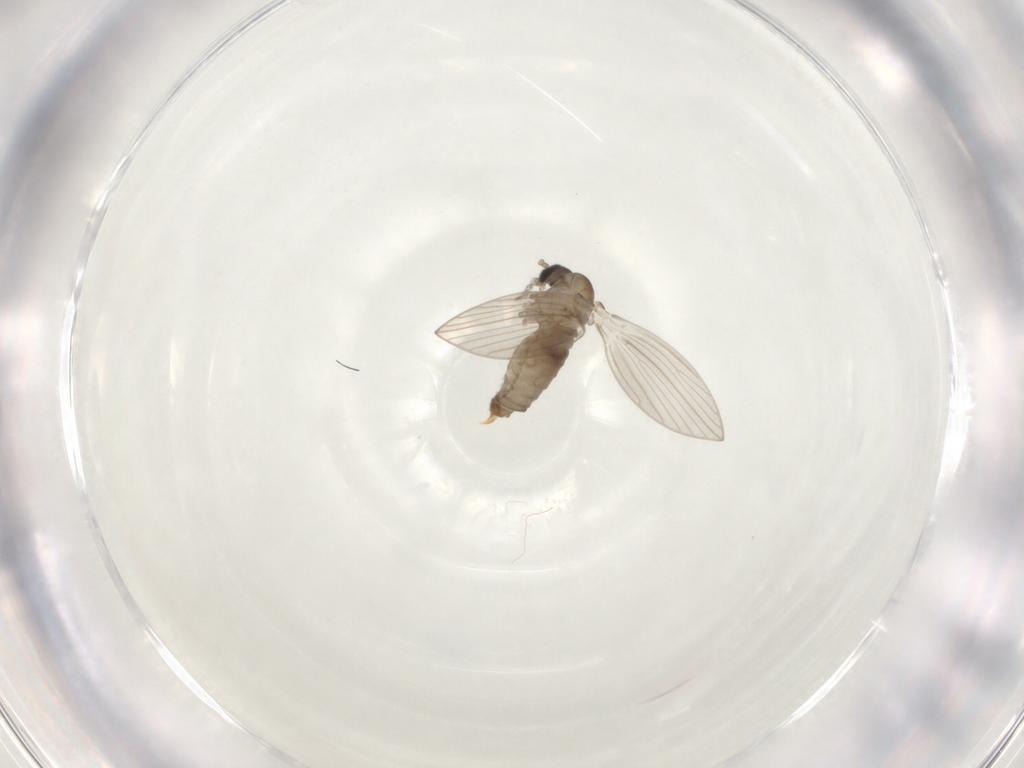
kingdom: Animalia
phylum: Arthropoda
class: Insecta
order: Diptera
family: Psychodidae
